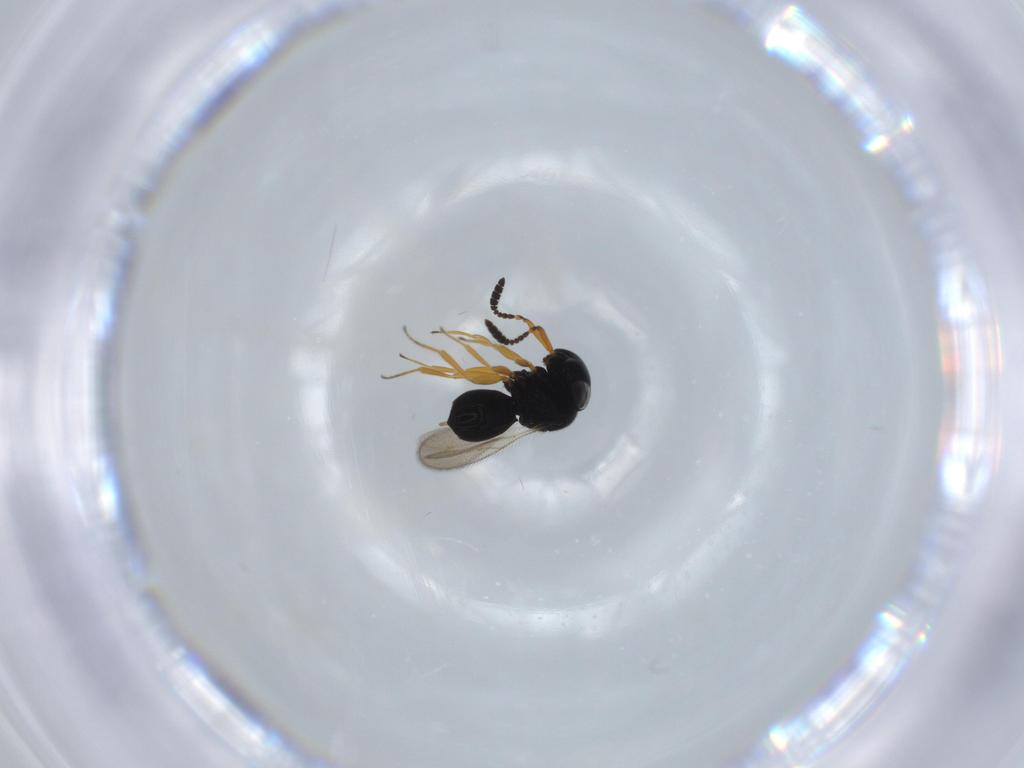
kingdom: Animalia
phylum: Arthropoda
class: Insecta
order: Hymenoptera
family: Scelionidae
